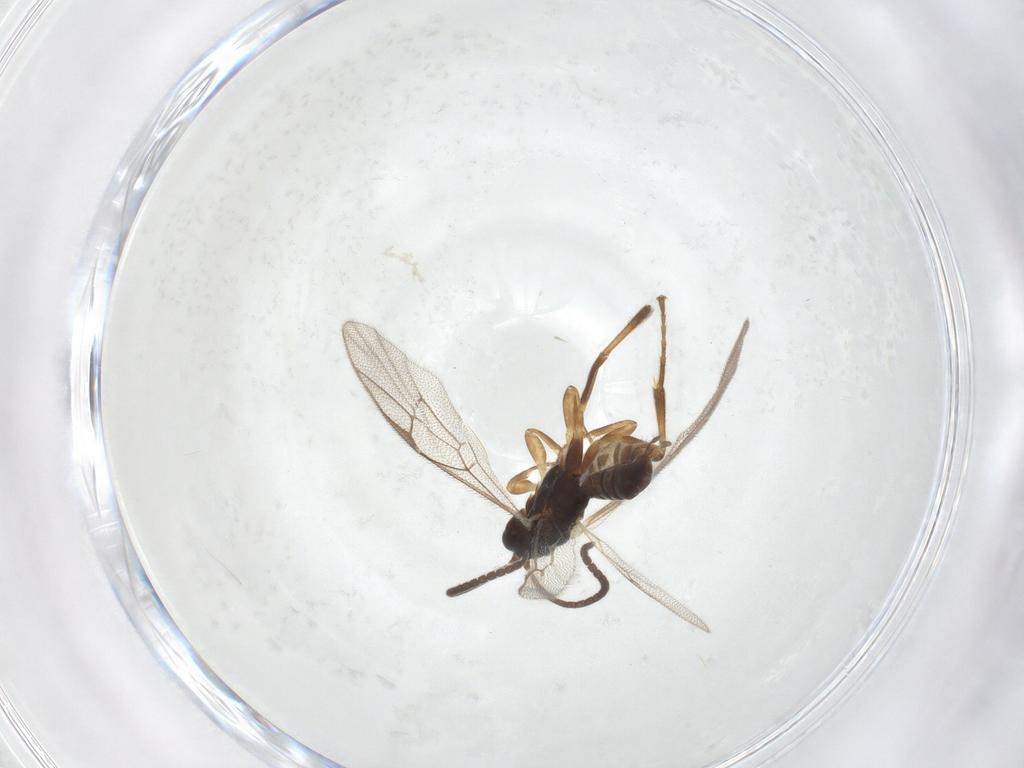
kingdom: Animalia
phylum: Arthropoda
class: Insecta
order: Hymenoptera
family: Ichneumonidae
